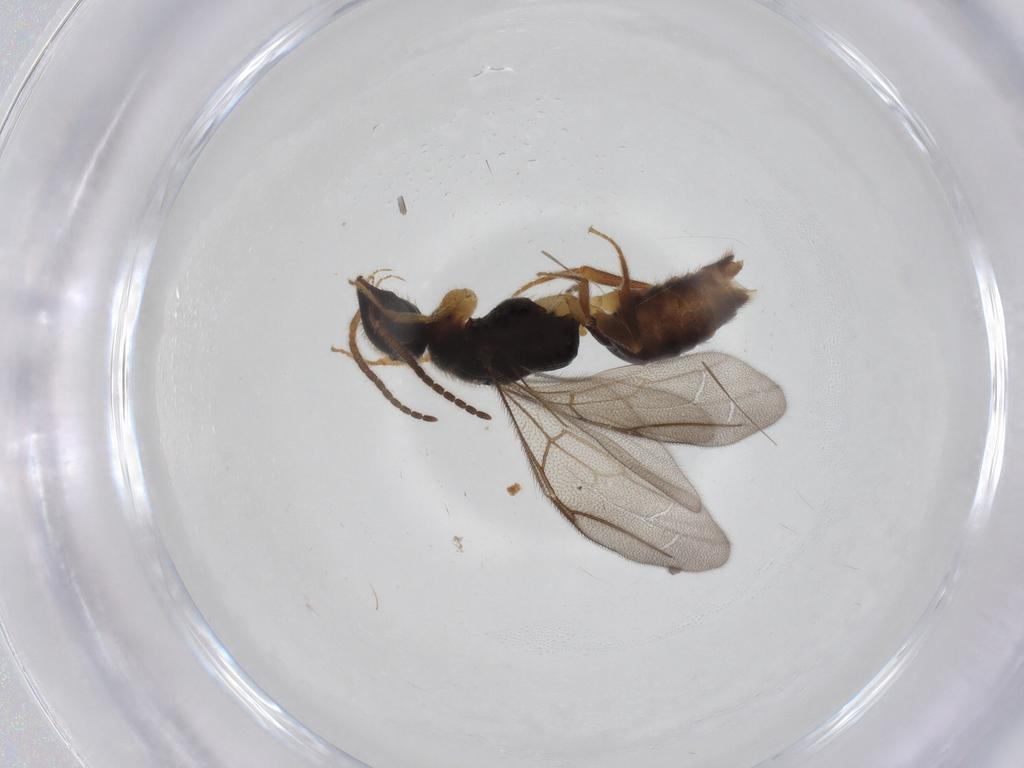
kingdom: Animalia
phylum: Arthropoda
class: Insecta
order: Hymenoptera
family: Bethylidae
